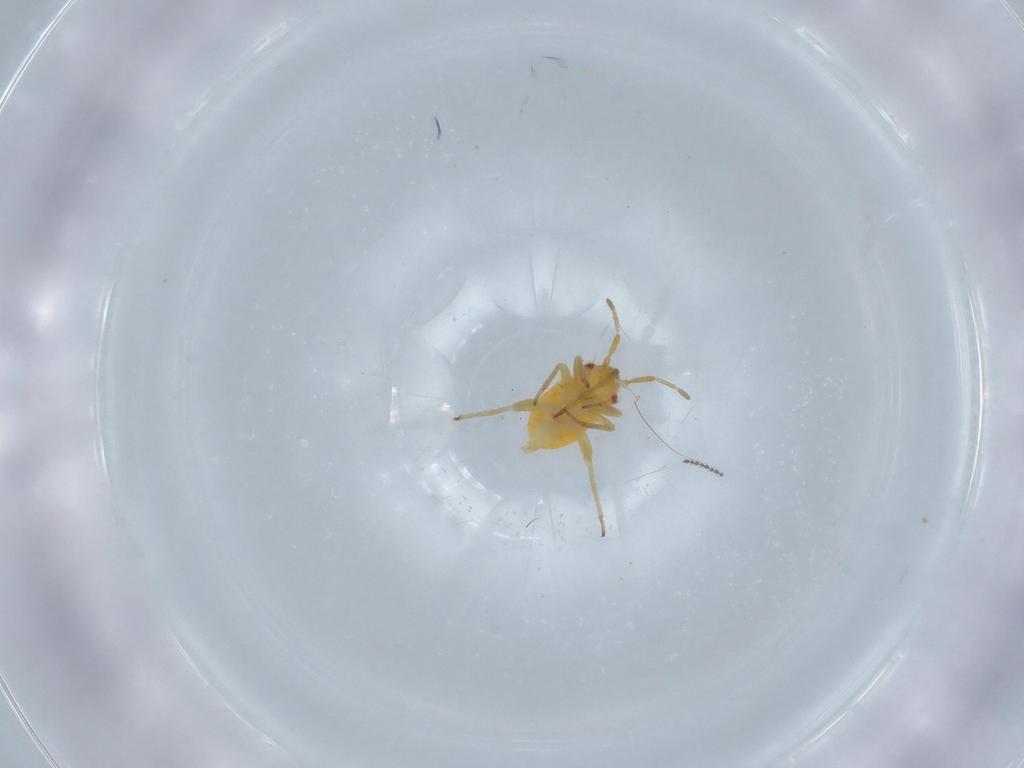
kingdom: Animalia
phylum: Arthropoda
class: Insecta
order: Hemiptera
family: Miridae
